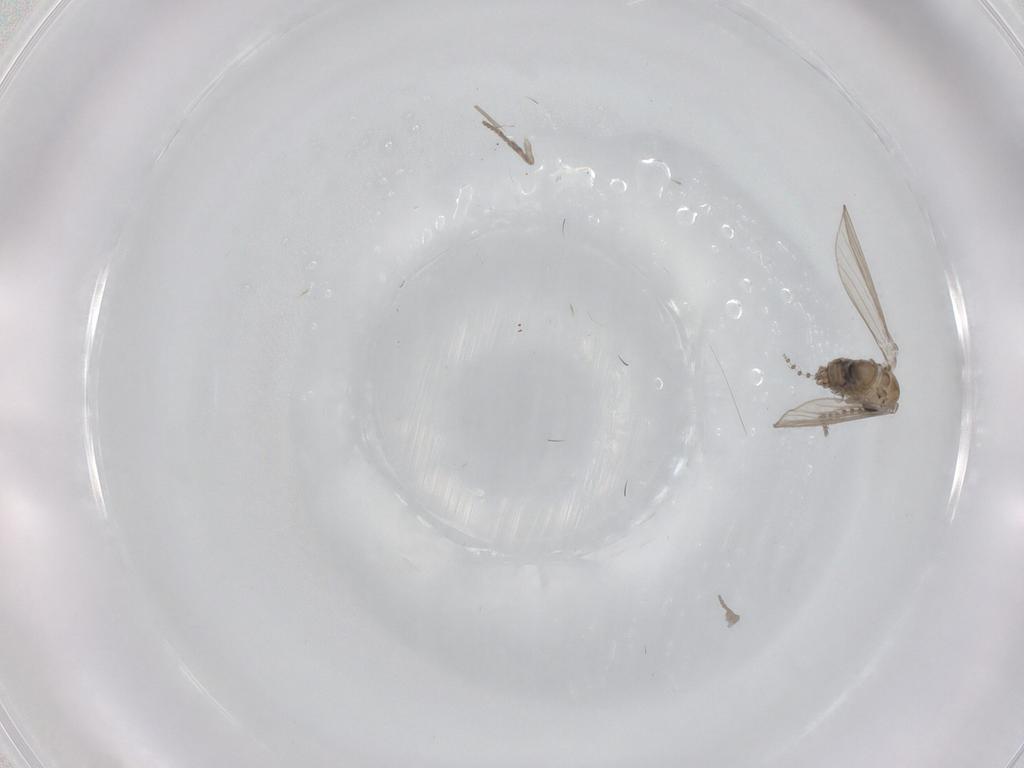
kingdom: Animalia
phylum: Arthropoda
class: Insecta
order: Diptera
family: Psychodidae
